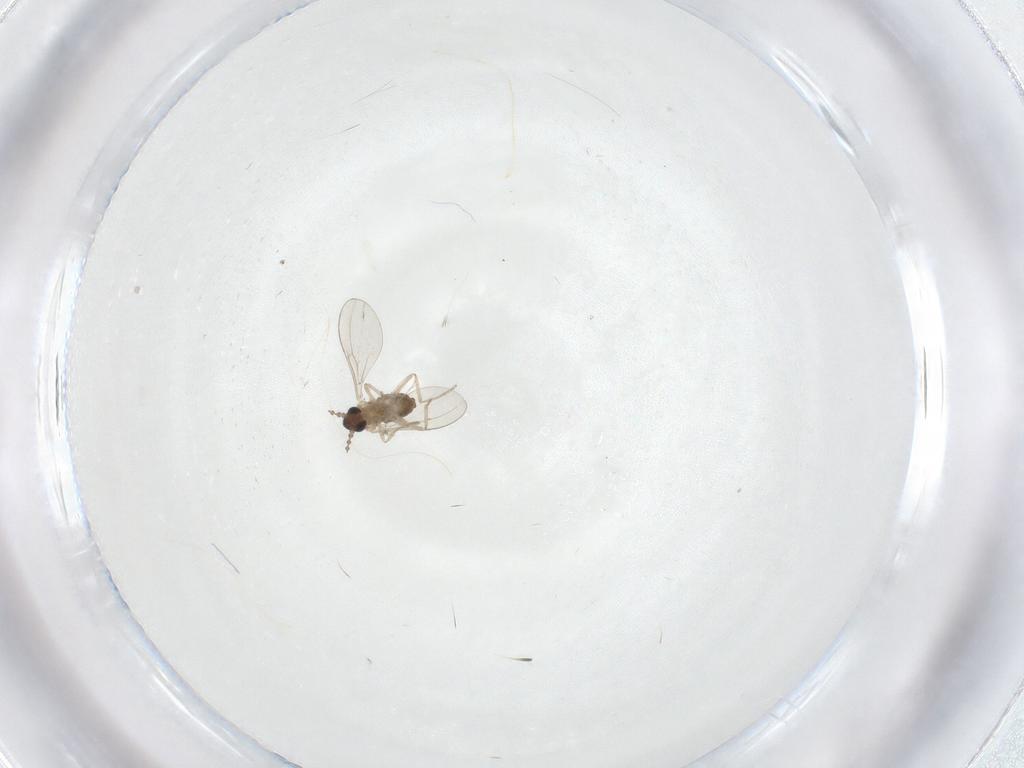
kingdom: Animalia
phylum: Arthropoda
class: Insecta
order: Diptera
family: Cecidomyiidae
